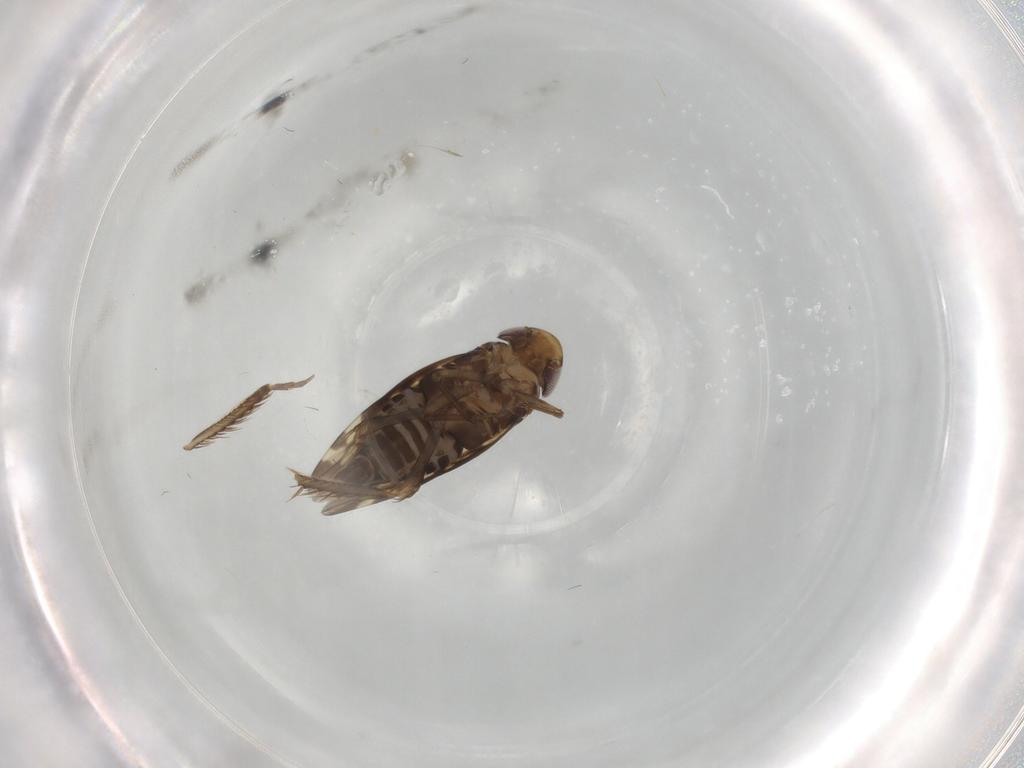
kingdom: Animalia
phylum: Arthropoda
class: Insecta
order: Hemiptera
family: Cicadellidae
